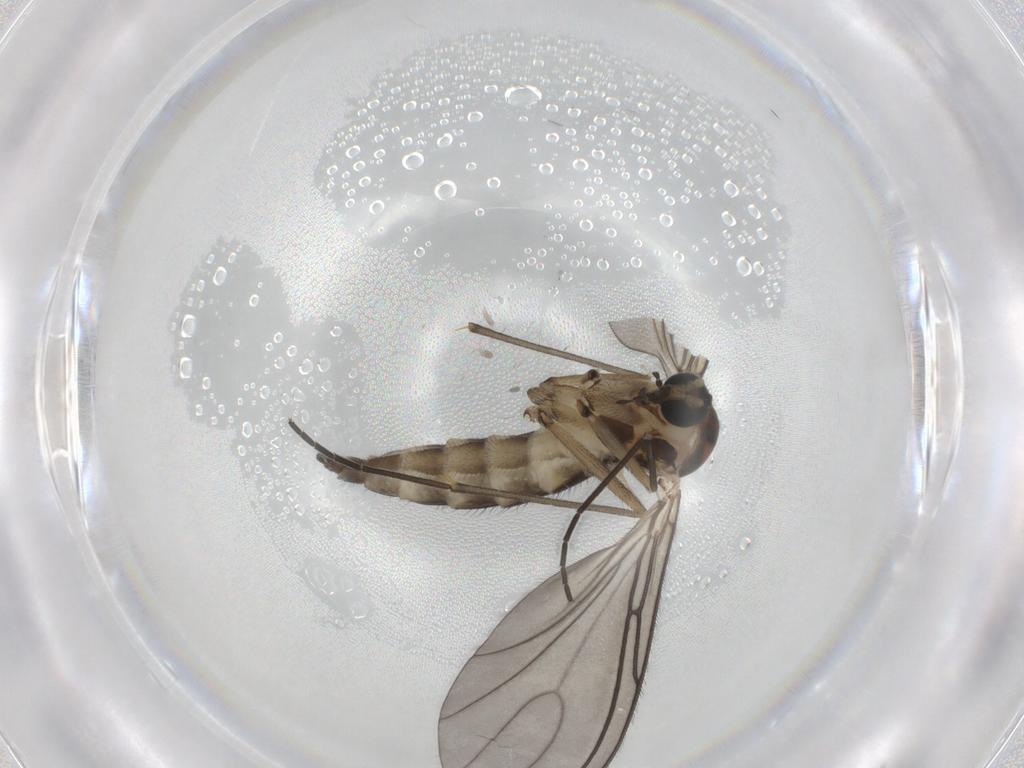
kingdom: Animalia
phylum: Arthropoda
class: Insecta
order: Diptera
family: Sciaridae
